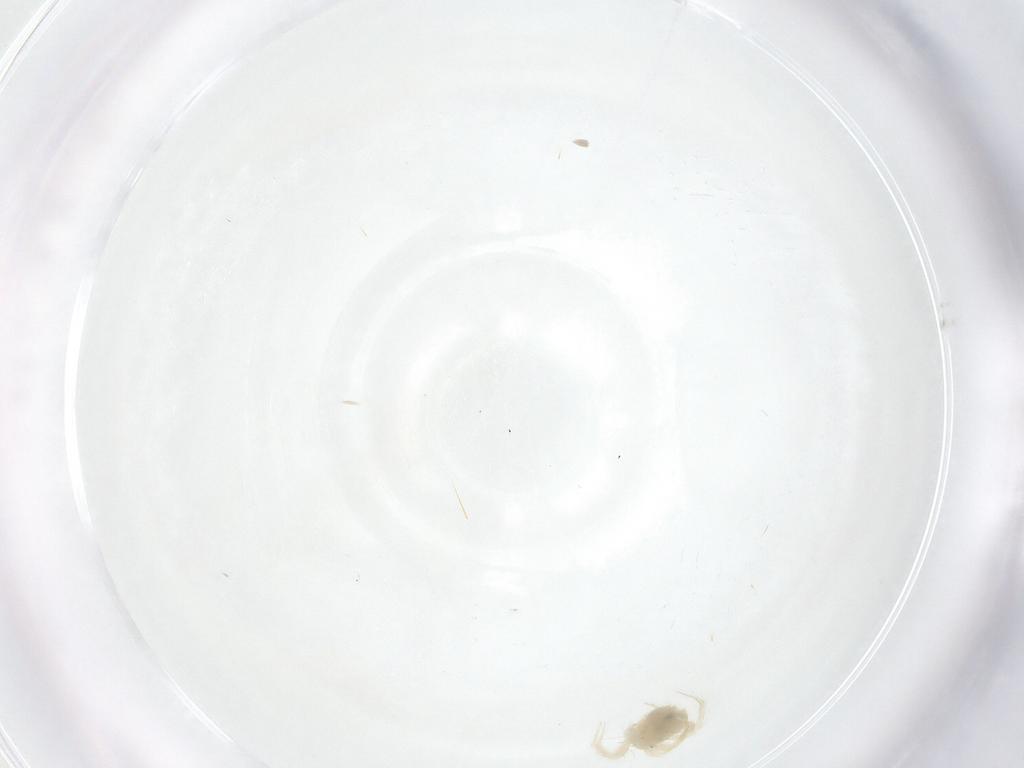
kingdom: Animalia
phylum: Arthropoda
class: Arachnida
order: Trombidiformes
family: Anystidae
